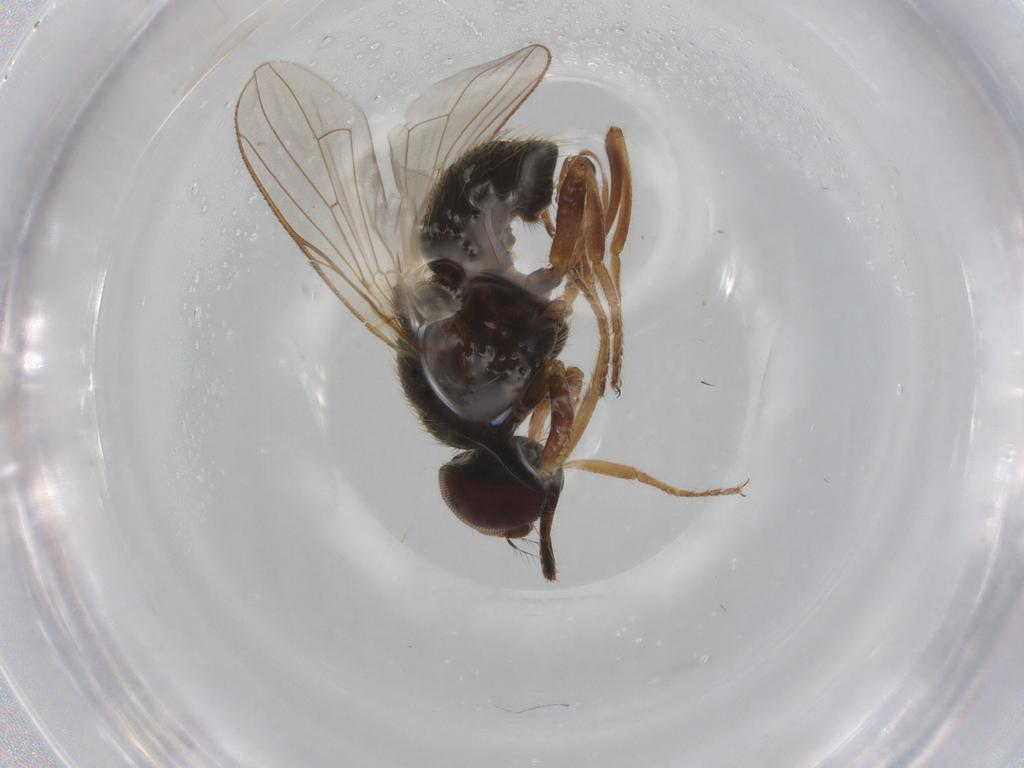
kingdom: Animalia
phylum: Arthropoda
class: Insecta
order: Diptera
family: Muscidae
